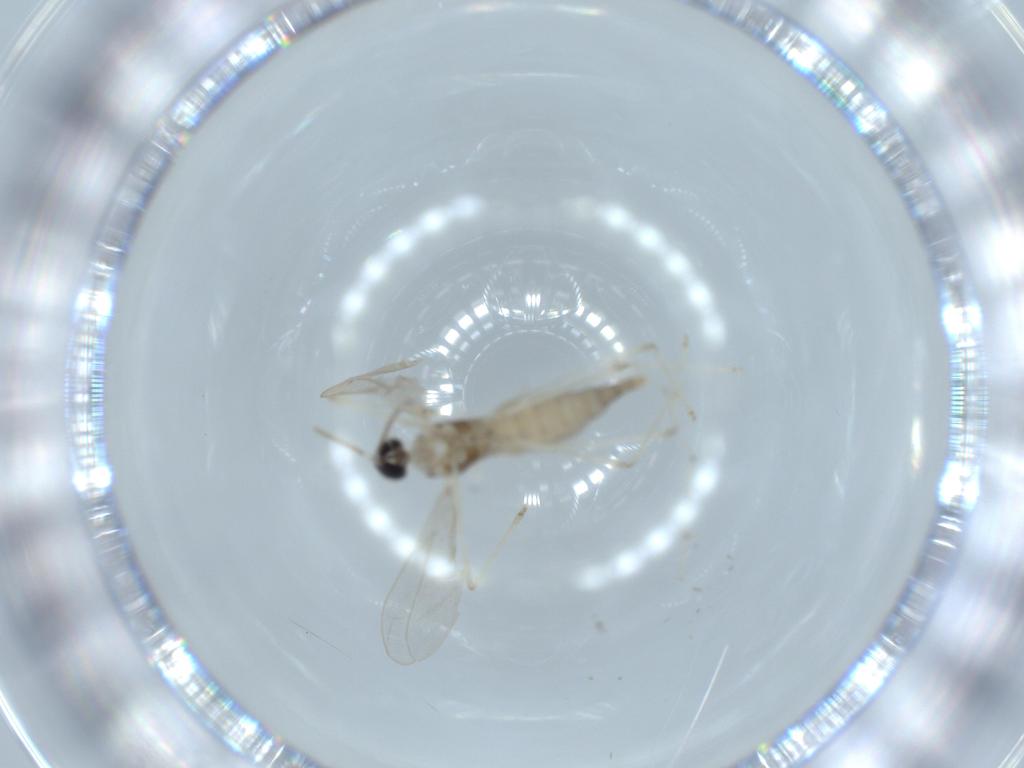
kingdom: Animalia
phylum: Arthropoda
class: Insecta
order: Diptera
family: Cecidomyiidae
